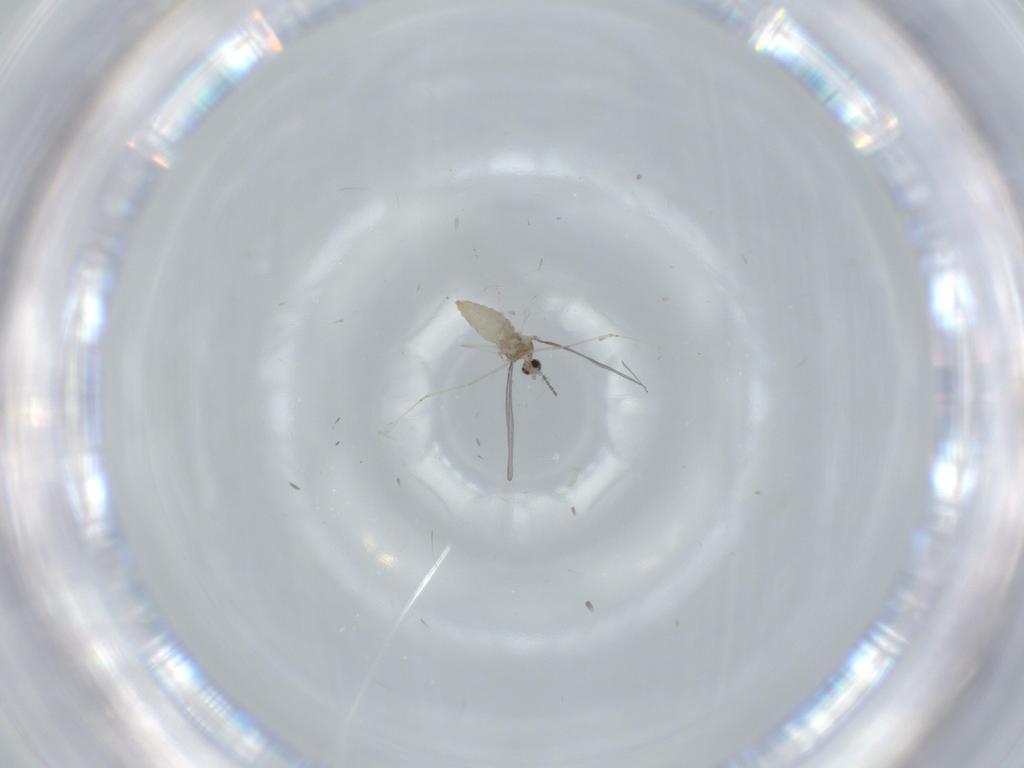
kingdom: Animalia
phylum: Arthropoda
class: Insecta
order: Diptera
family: Cecidomyiidae
